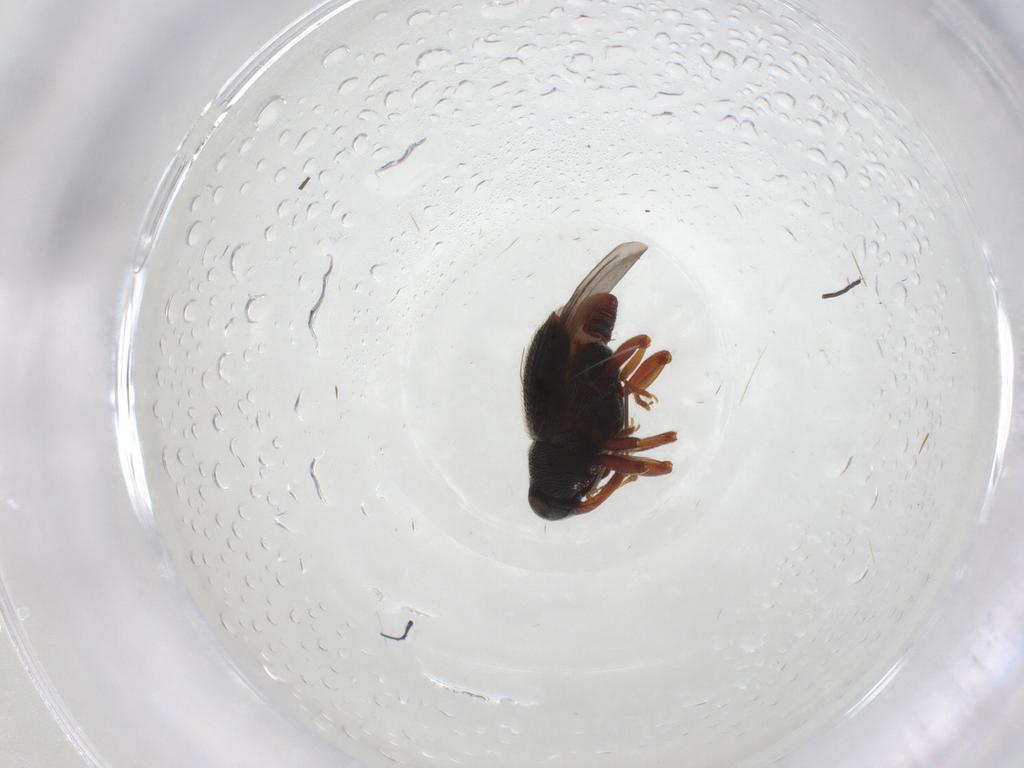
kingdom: Animalia
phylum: Arthropoda
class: Insecta
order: Coleoptera
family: Curculionidae
